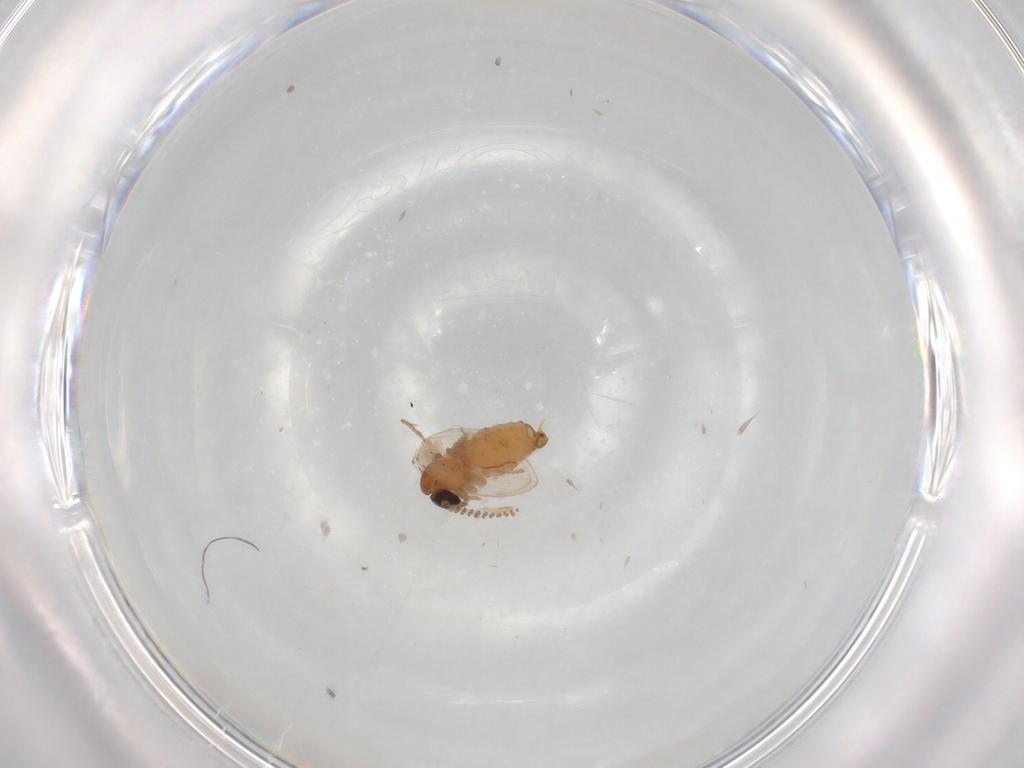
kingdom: Animalia
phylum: Arthropoda
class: Insecta
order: Diptera
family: Psychodidae
